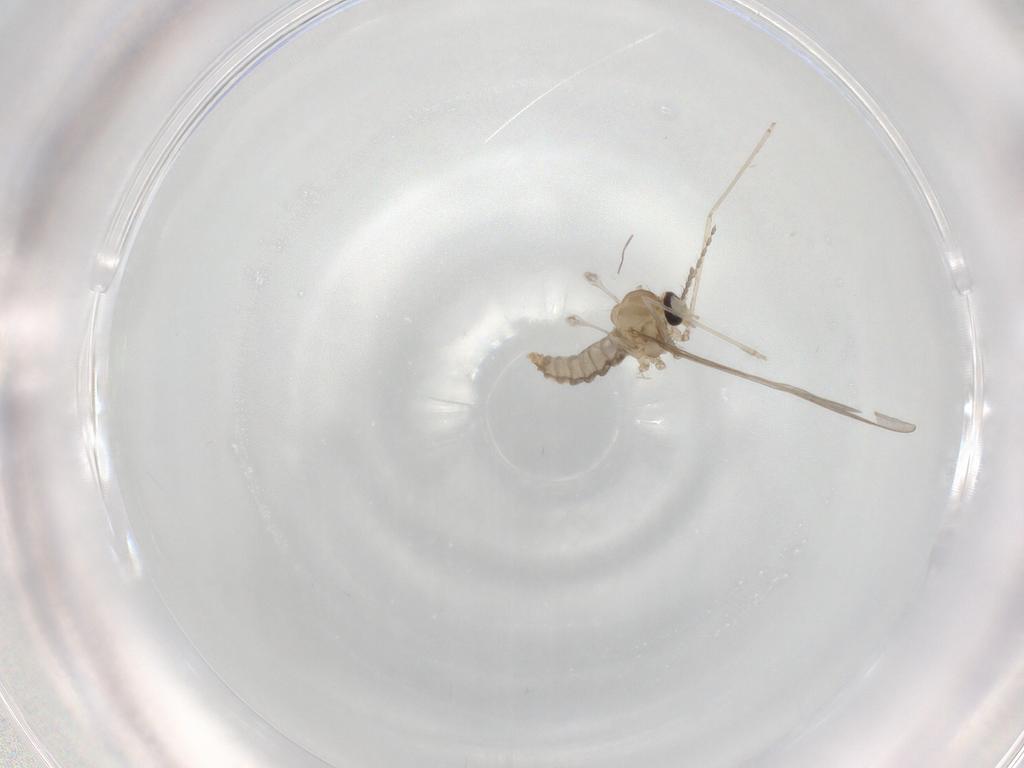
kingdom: Animalia
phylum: Arthropoda
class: Insecta
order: Diptera
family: Cecidomyiidae
